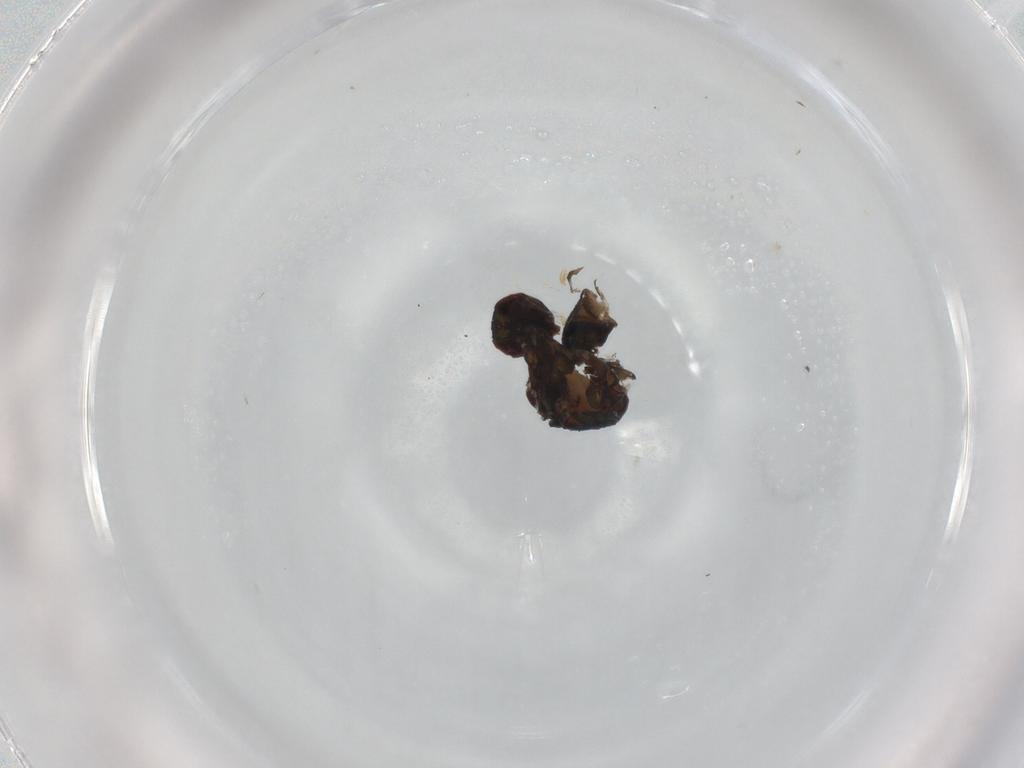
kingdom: Animalia
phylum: Arthropoda
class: Insecta
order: Diptera
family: Dolichopodidae
